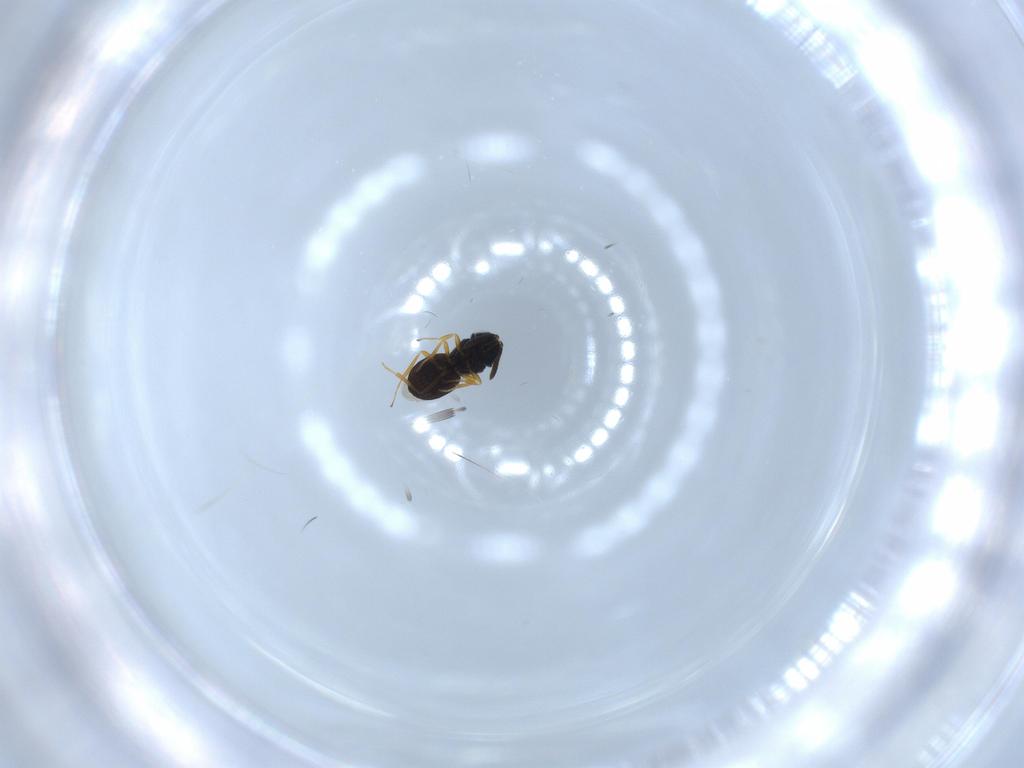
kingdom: Animalia
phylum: Arthropoda
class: Insecta
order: Hymenoptera
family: Scelionidae
